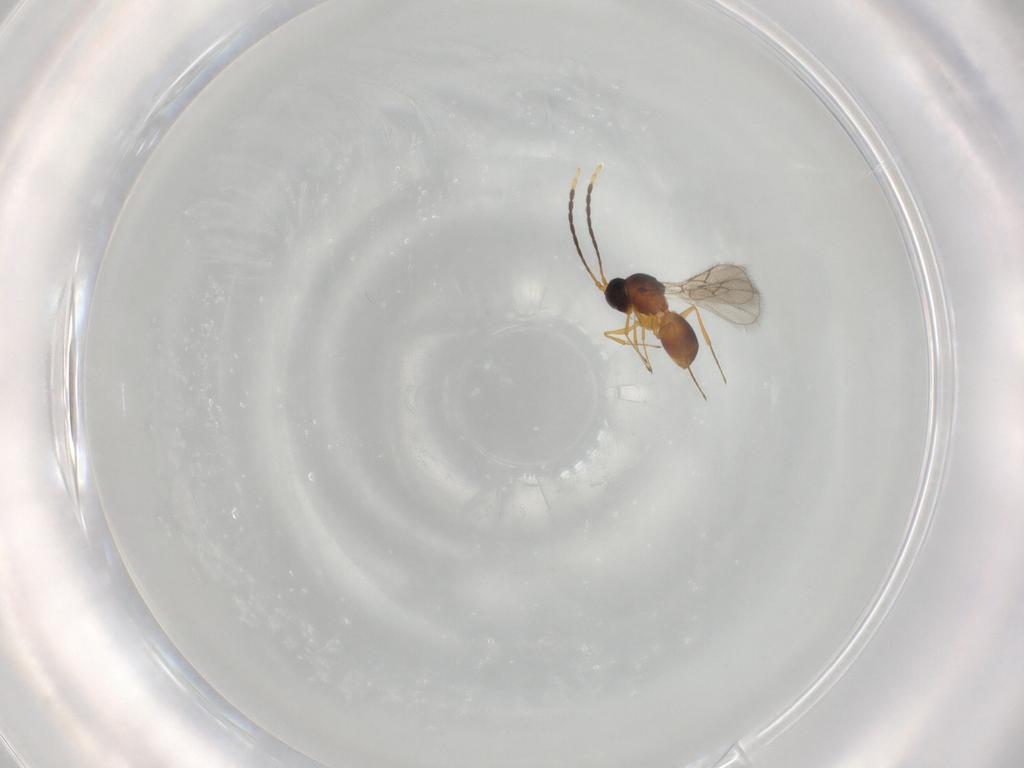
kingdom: Animalia
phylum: Arthropoda
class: Insecta
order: Hymenoptera
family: Figitidae
